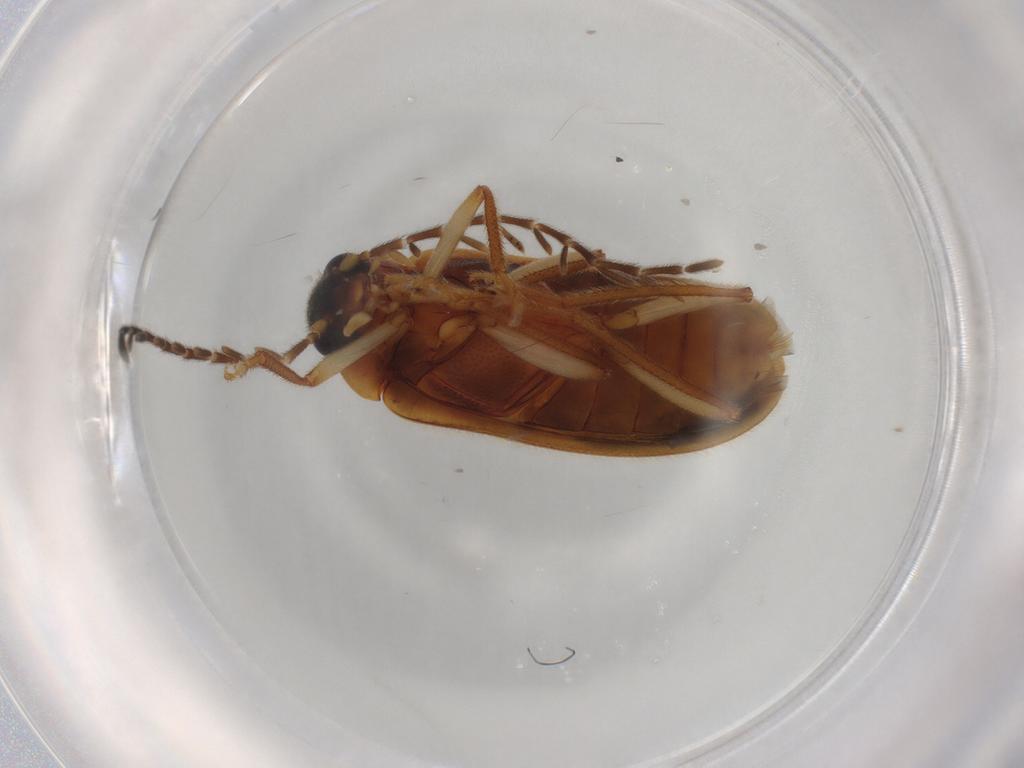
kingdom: Animalia
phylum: Arthropoda
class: Insecta
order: Coleoptera
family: Ptilodactylidae
